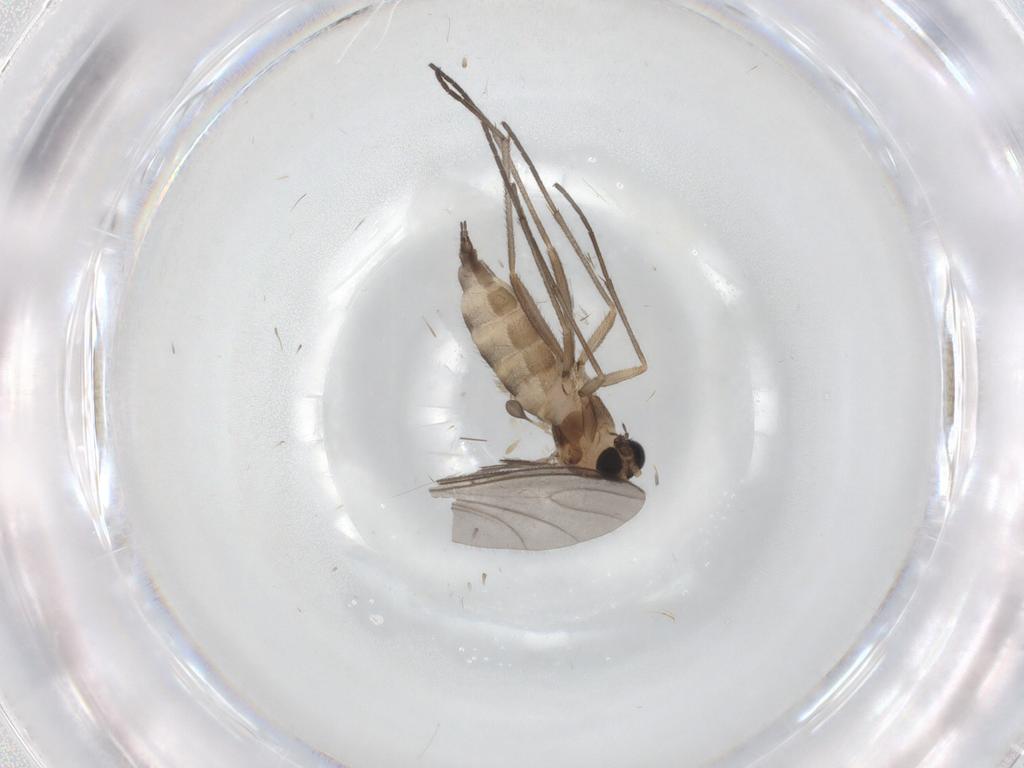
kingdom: Animalia
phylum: Arthropoda
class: Insecta
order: Diptera
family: Sciaridae
